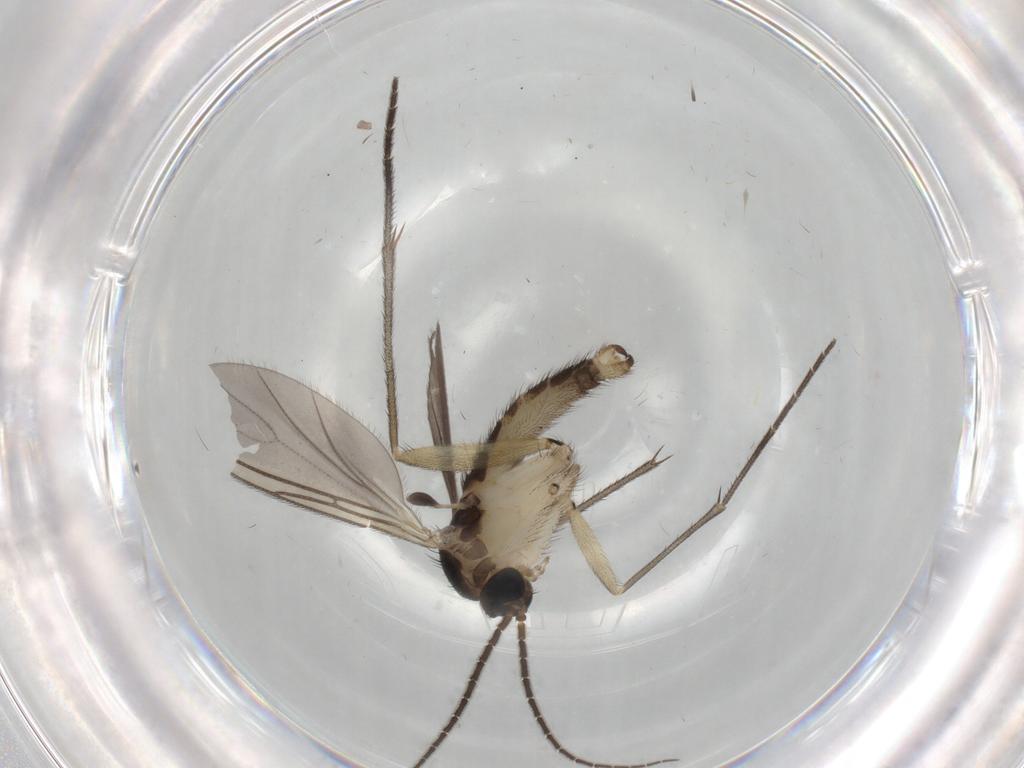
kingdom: Animalia
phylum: Arthropoda
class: Insecta
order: Diptera
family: Sciaridae
